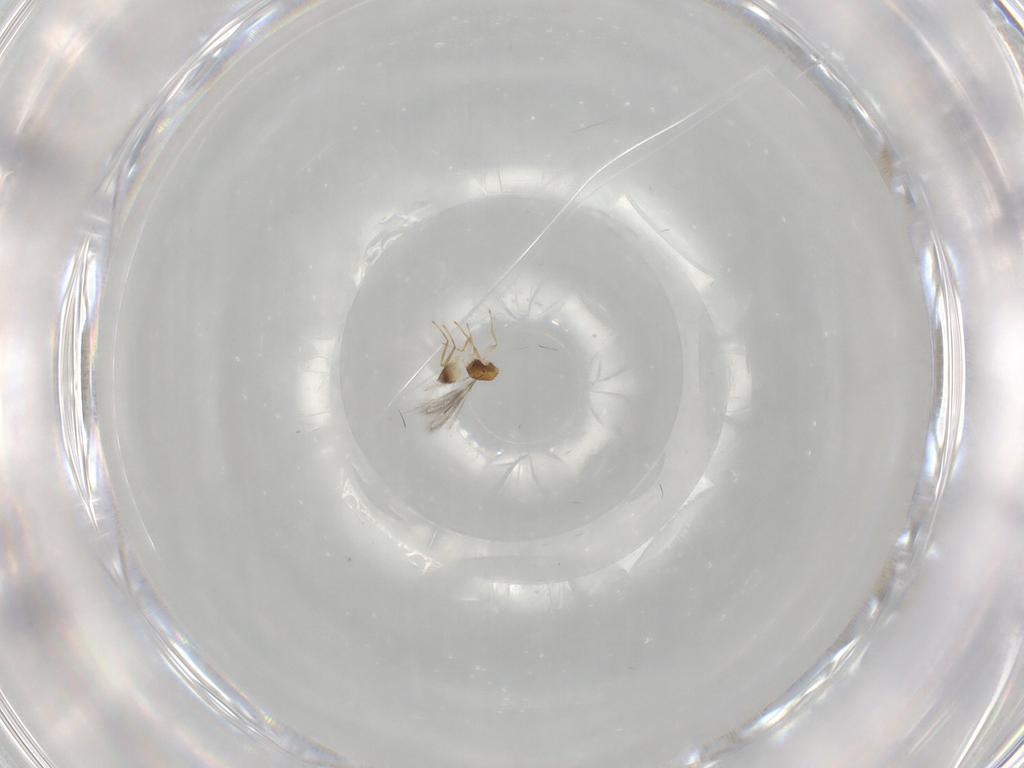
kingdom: Animalia
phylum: Arthropoda
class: Insecta
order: Hymenoptera
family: Mymaridae
